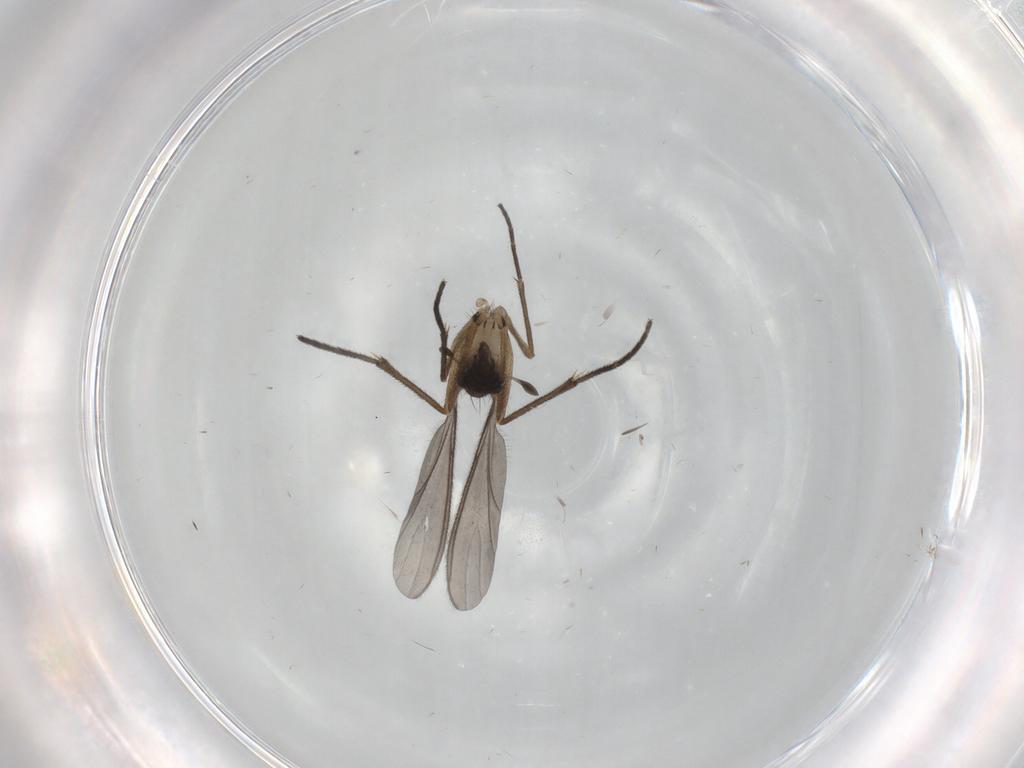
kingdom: Animalia
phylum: Arthropoda
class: Insecta
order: Diptera
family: Sciaridae
